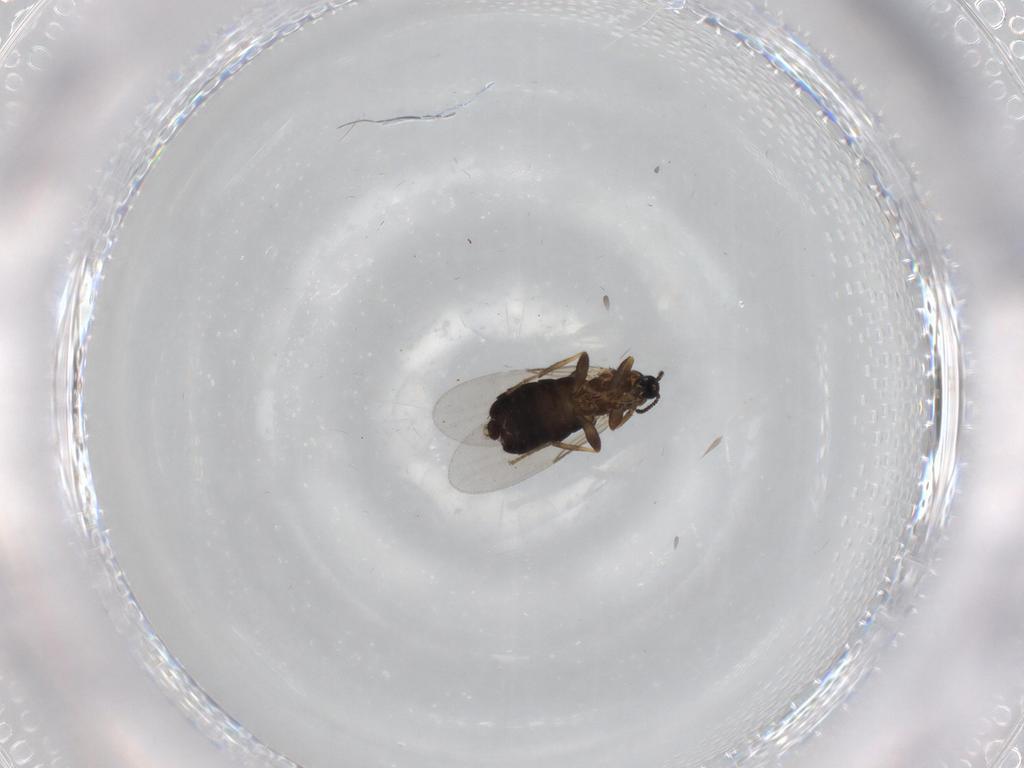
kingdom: Animalia
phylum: Arthropoda
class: Insecta
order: Diptera
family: Scatopsidae
